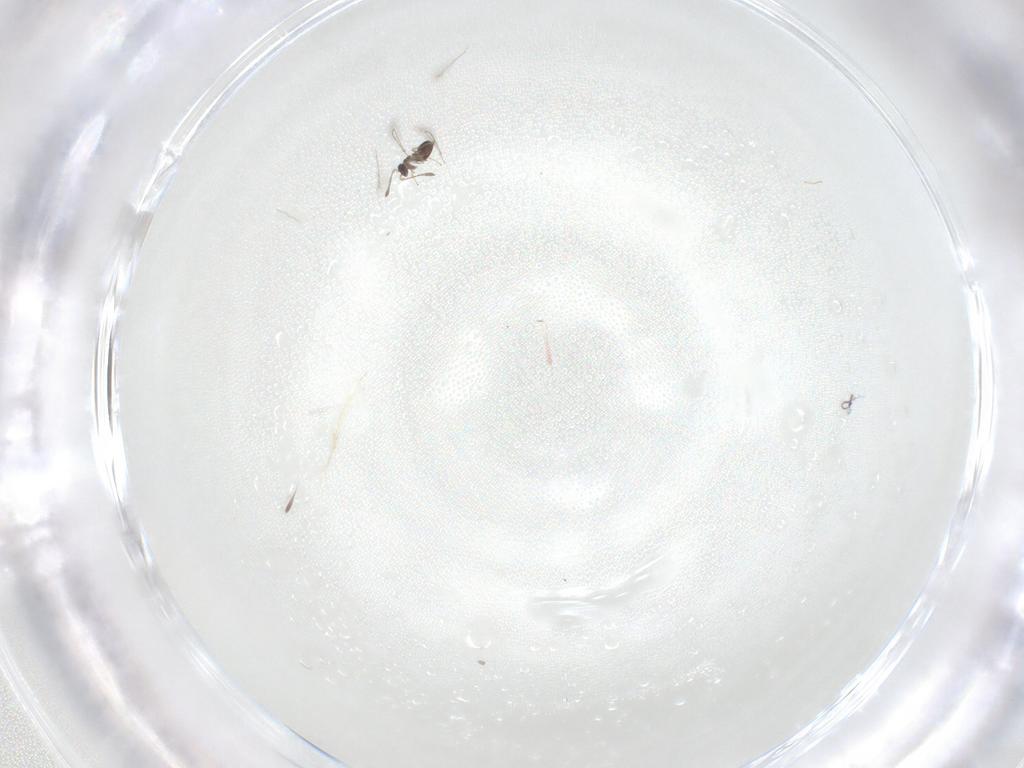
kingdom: Animalia
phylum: Arthropoda
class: Insecta
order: Hymenoptera
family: Mymaridae
